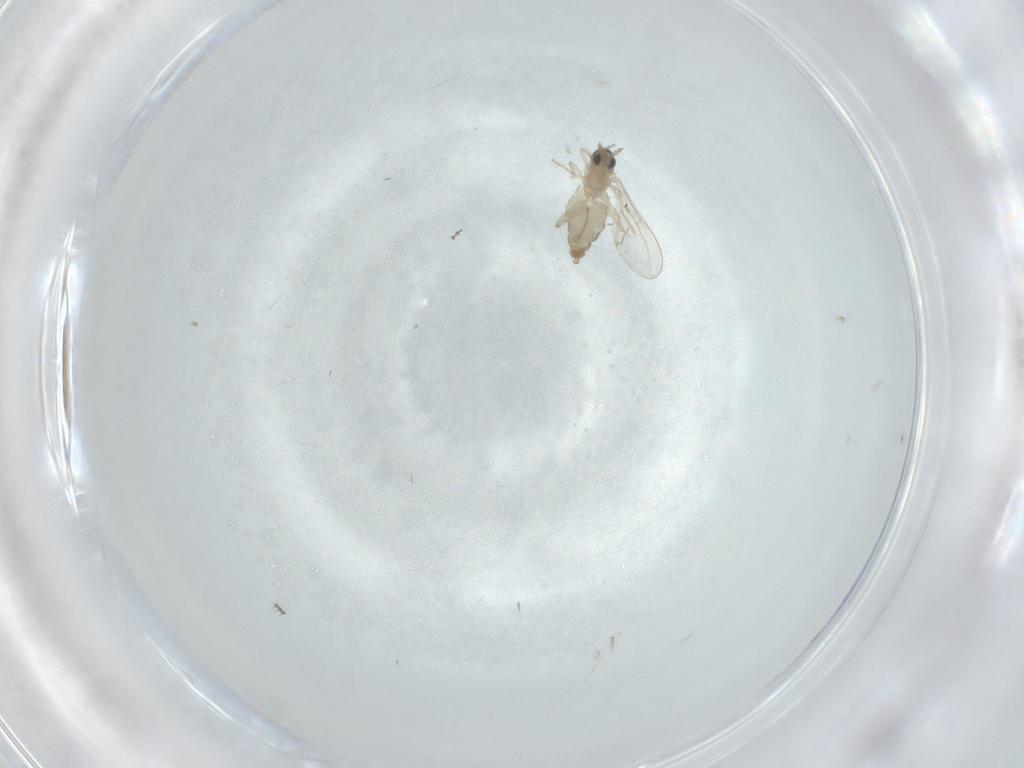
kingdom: Animalia
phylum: Arthropoda
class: Insecta
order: Diptera
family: Cecidomyiidae
